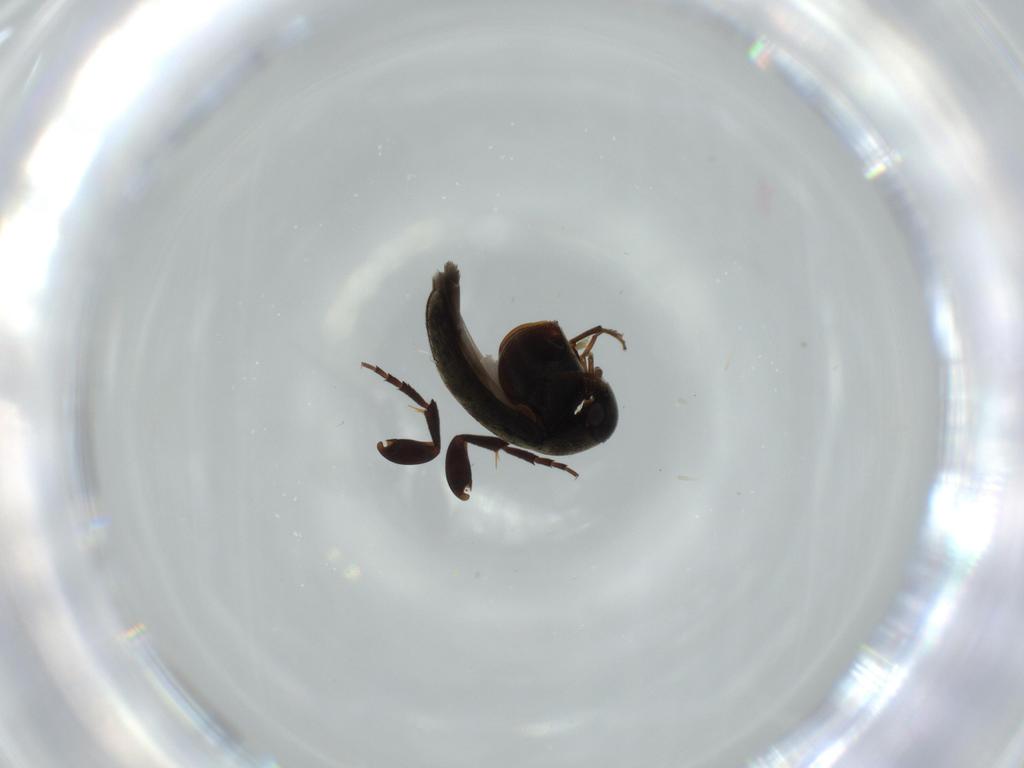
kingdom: Animalia
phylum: Arthropoda
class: Insecta
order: Coleoptera
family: Mordellidae
